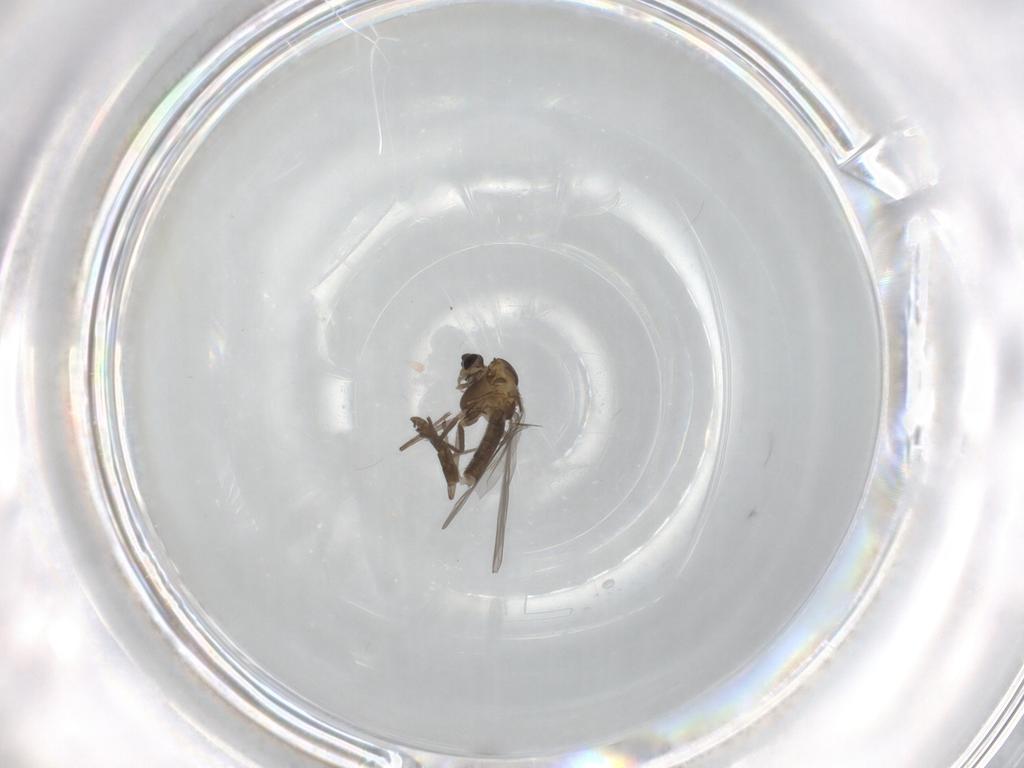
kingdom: Animalia
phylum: Arthropoda
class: Insecta
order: Diptera
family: Chironomidae
